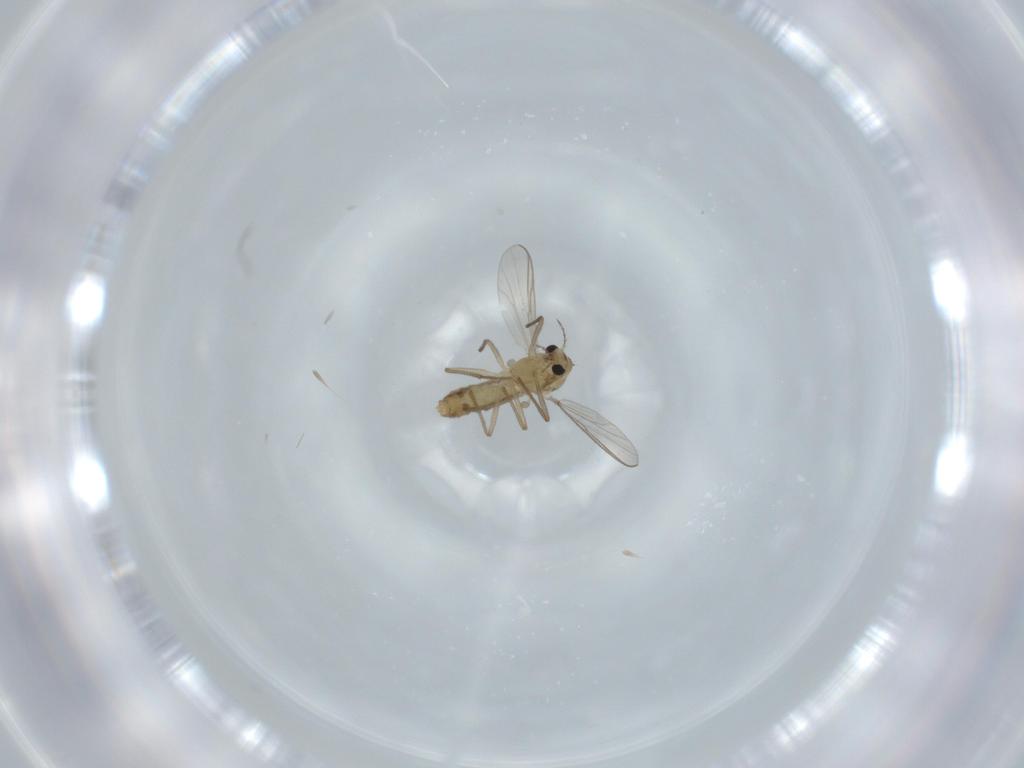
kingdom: Animalia
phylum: Arthropoda
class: Insecta
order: Diptera
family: Chironomidae
